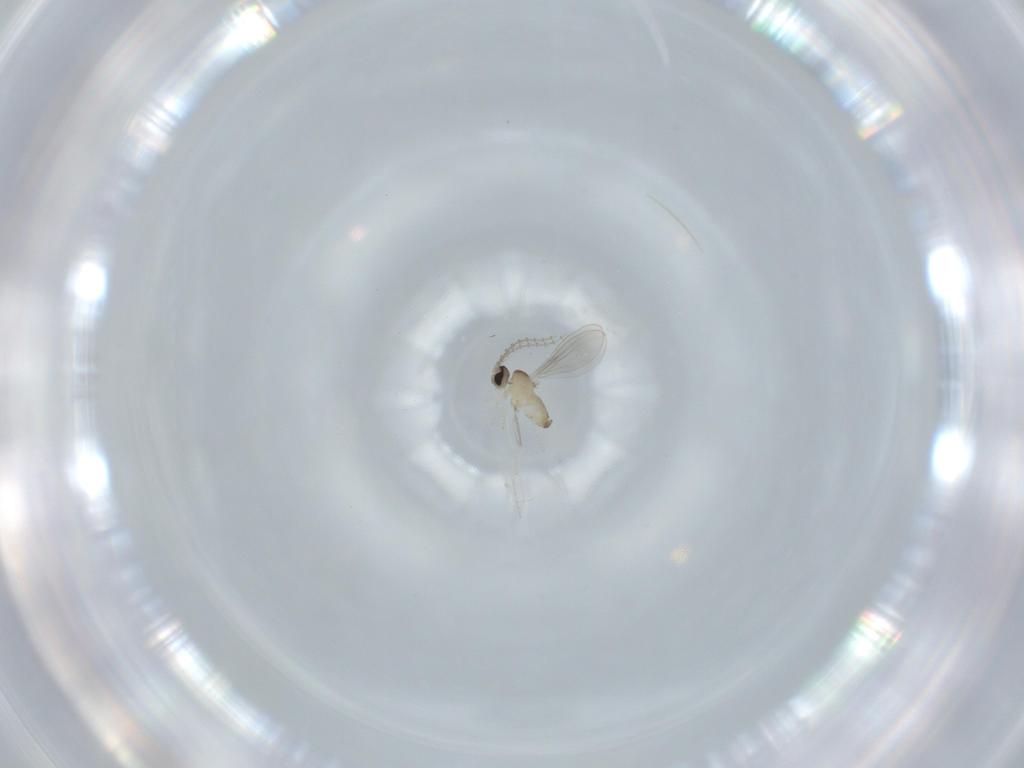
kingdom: Animalia
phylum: Arthropoda
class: Insecta
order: Diptera
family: Cecidomyiidae
